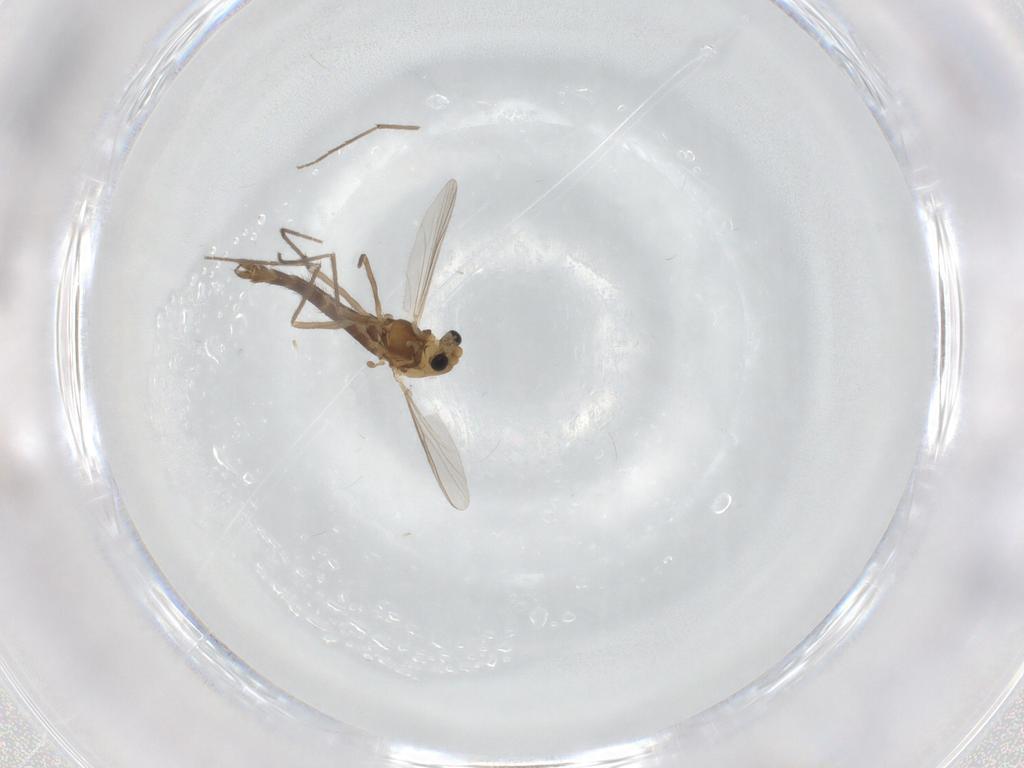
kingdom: Animalia
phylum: Arthropoda
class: Insecta
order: Diptera
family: Chironomidae
